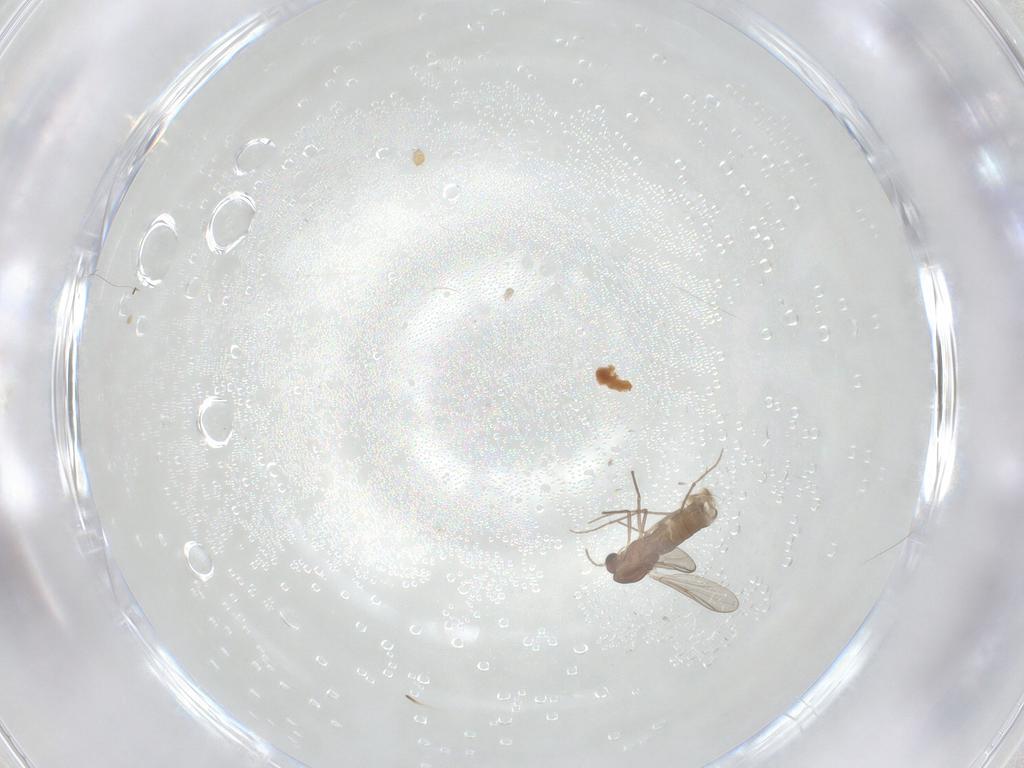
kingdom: Animalia
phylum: Arthropoda
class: Insecta
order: Diptera
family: Chironomidae
